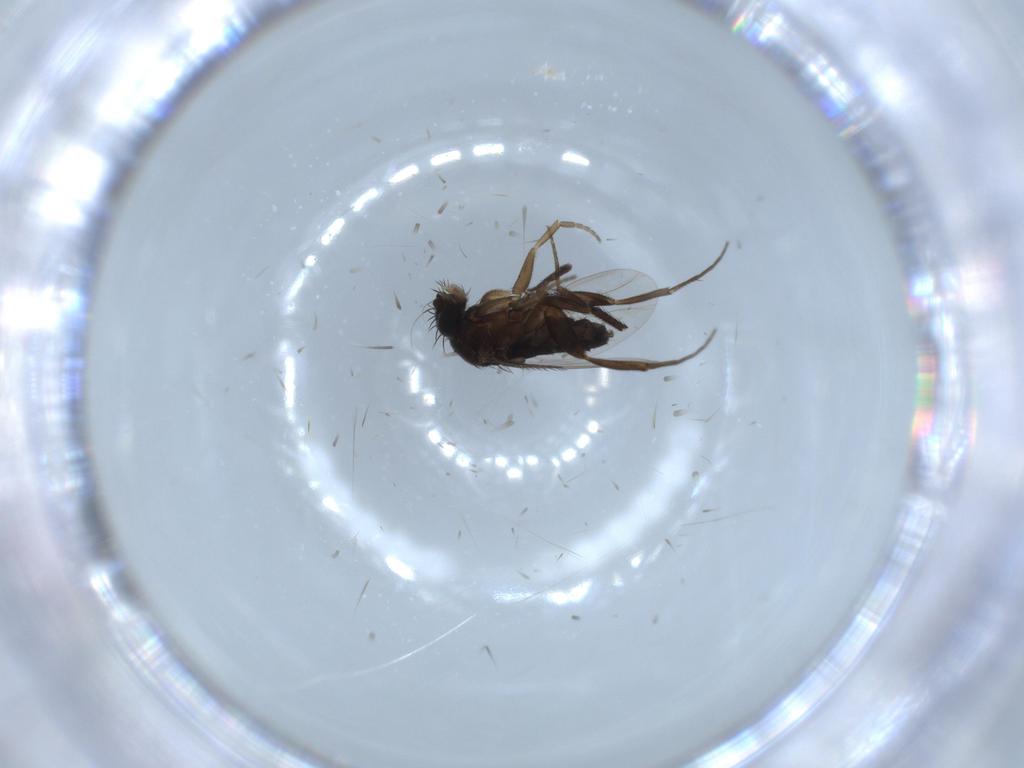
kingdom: Animalia
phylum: Arthropoda
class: Insecta
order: Diptera
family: Phoridae
